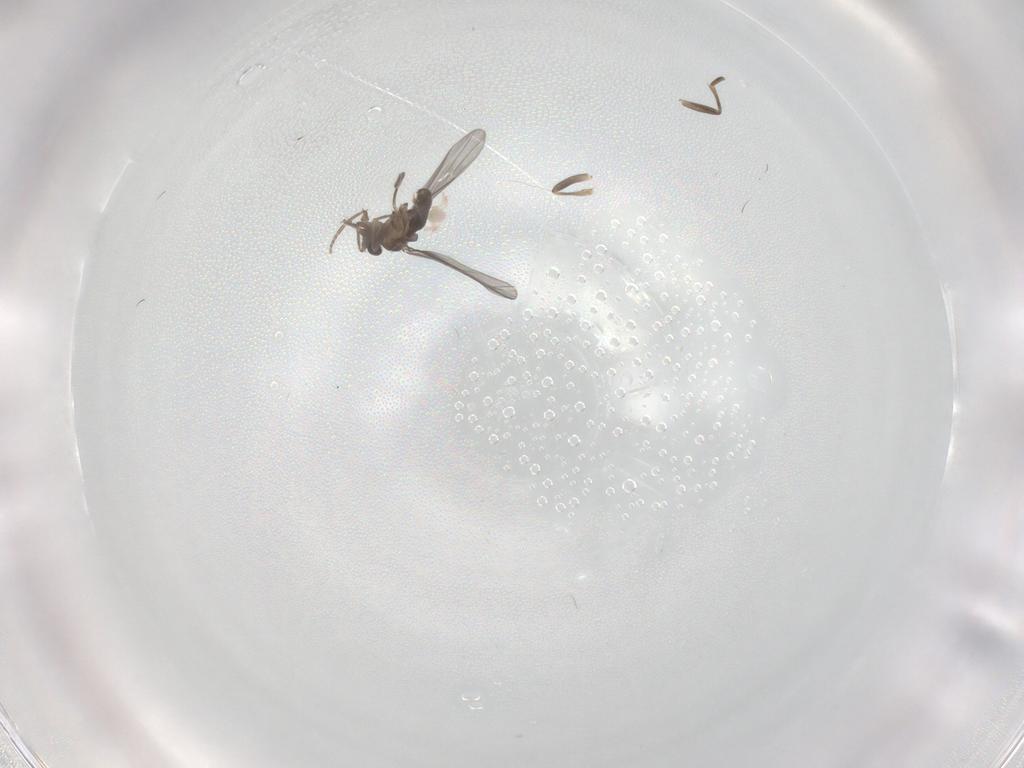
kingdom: Animalia
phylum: Arthropoda
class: Insecta
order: Diptera
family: Psychodidae
